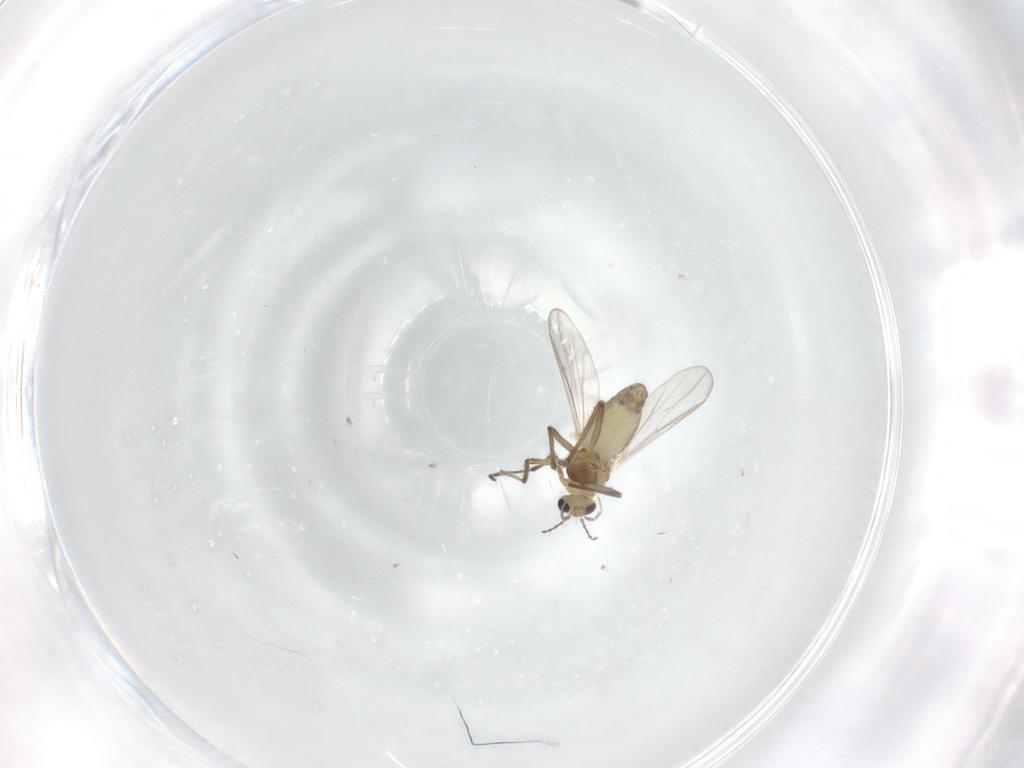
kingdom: Animalia
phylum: Arthropoda
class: Insecta
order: Diptera
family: Chironomidae
